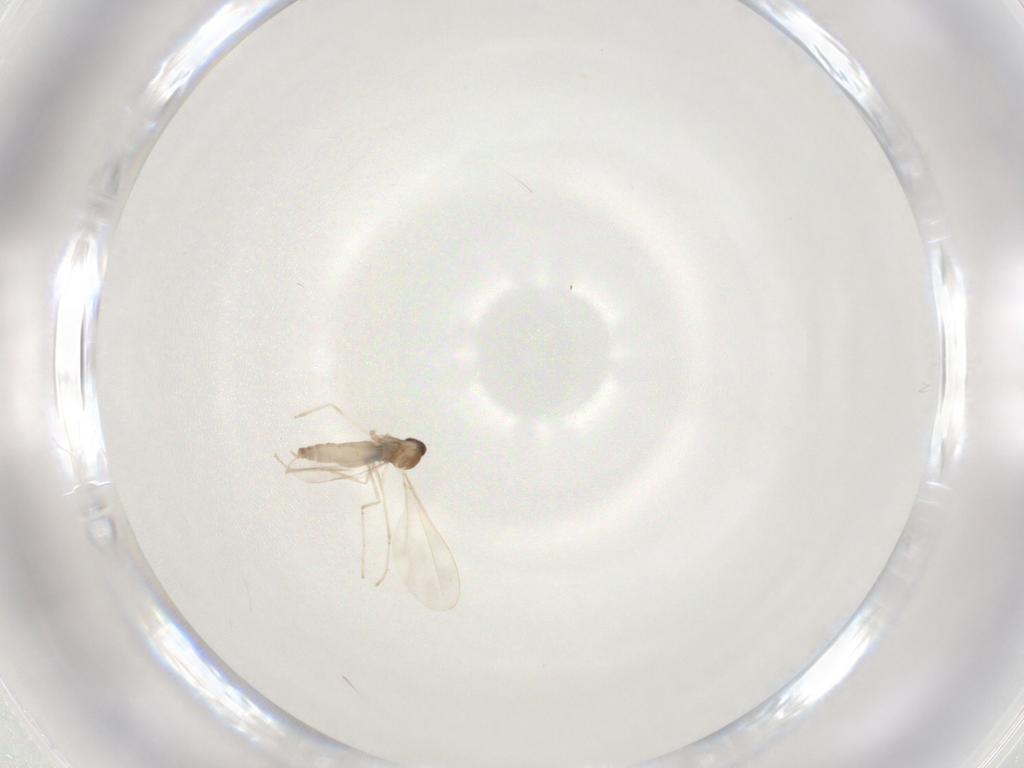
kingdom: Animalia
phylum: Arthropoda
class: Insecta
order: Diptera
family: Cecidomyiidae
